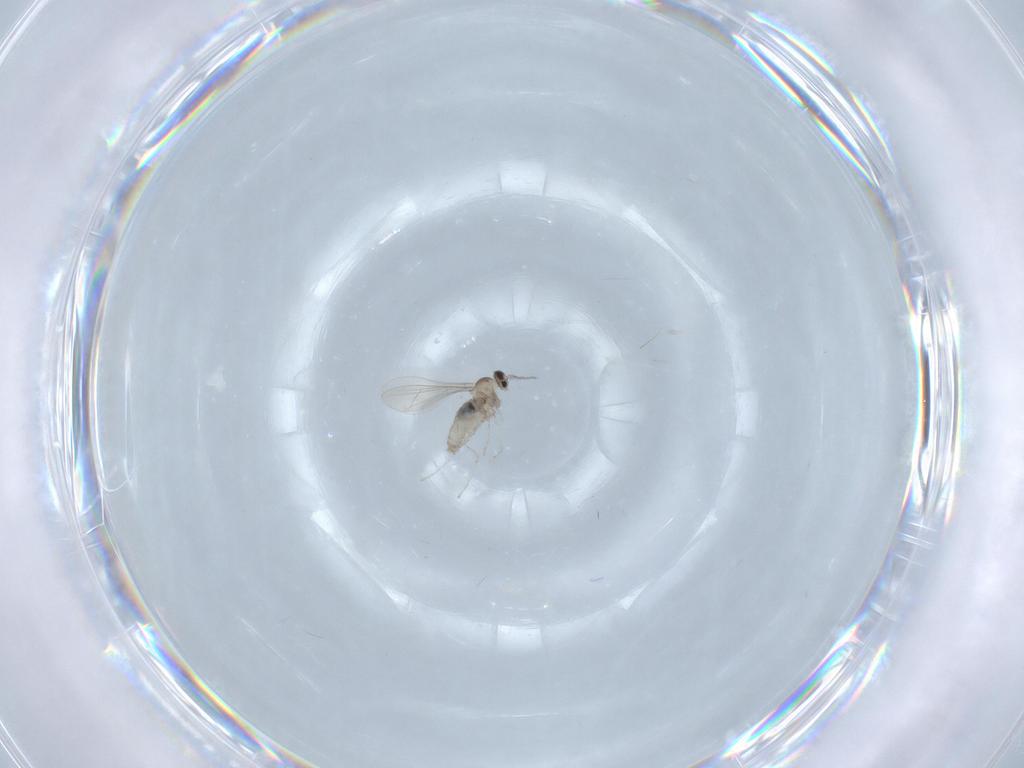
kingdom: Animalia
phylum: Arthropoda
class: Insecta
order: Diptera
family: Cecidomyiidae
